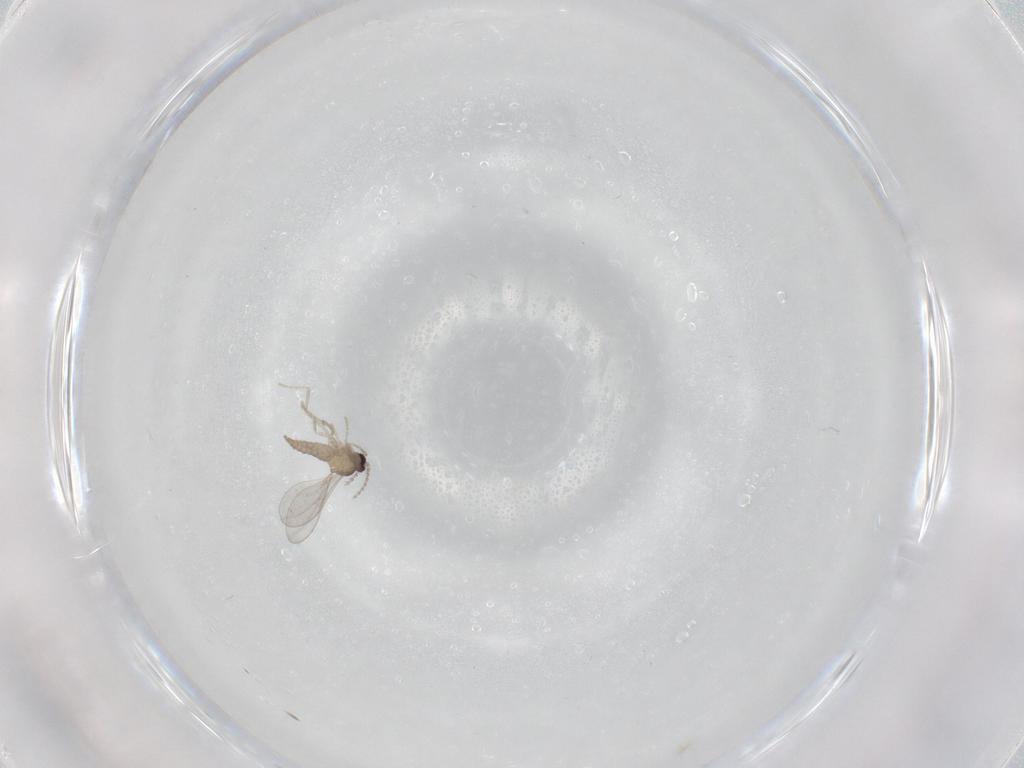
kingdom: Animalia
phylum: Arthropoda
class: Insecta
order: Diptera
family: Cecidomyiidae
